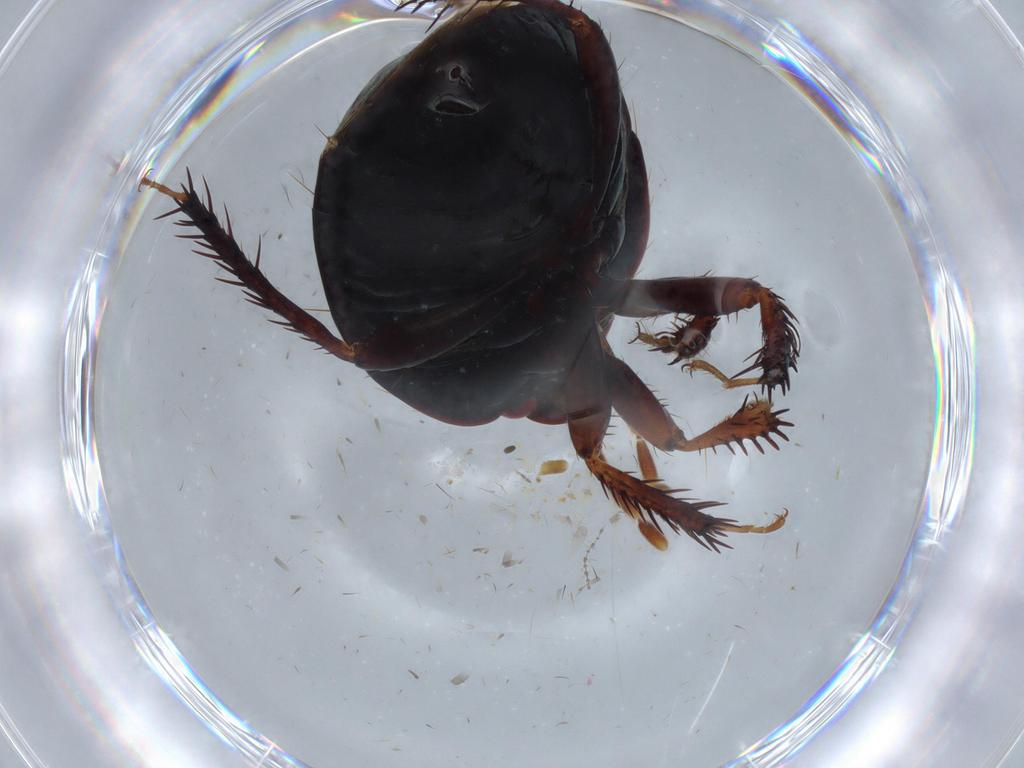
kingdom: Animalia
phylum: Arthropoda
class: Insecta
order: Hemiptera
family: Cydnidae
